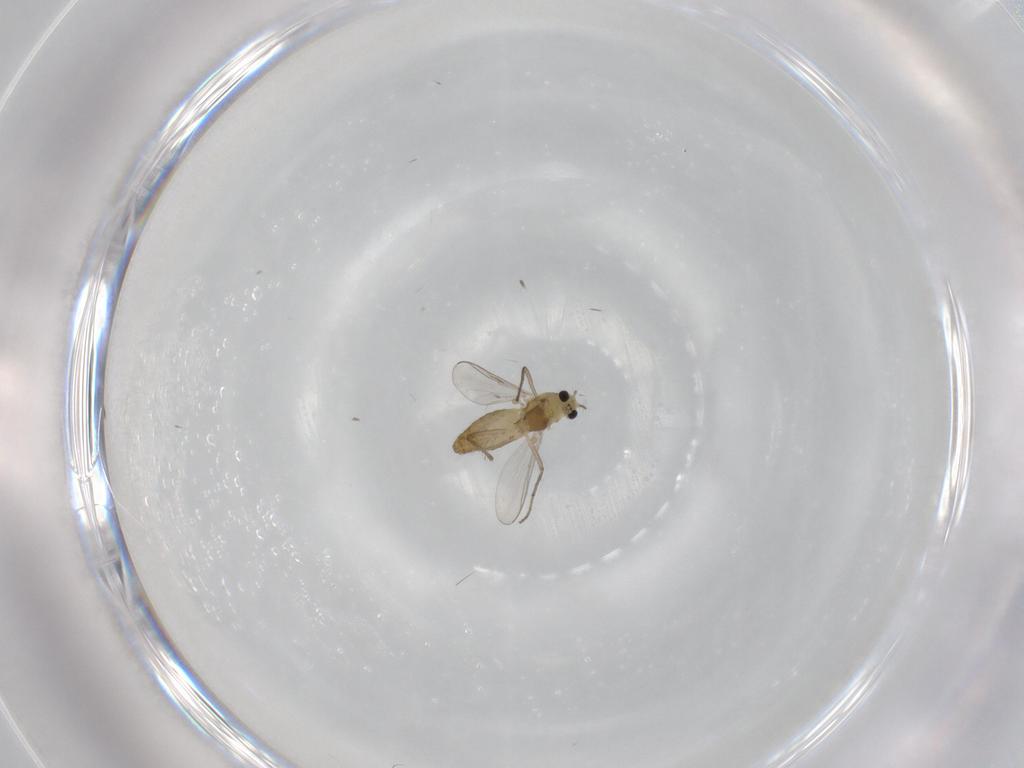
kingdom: Animalia
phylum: Arthropoda
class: Insecta
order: Diptera
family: Chironomidae
